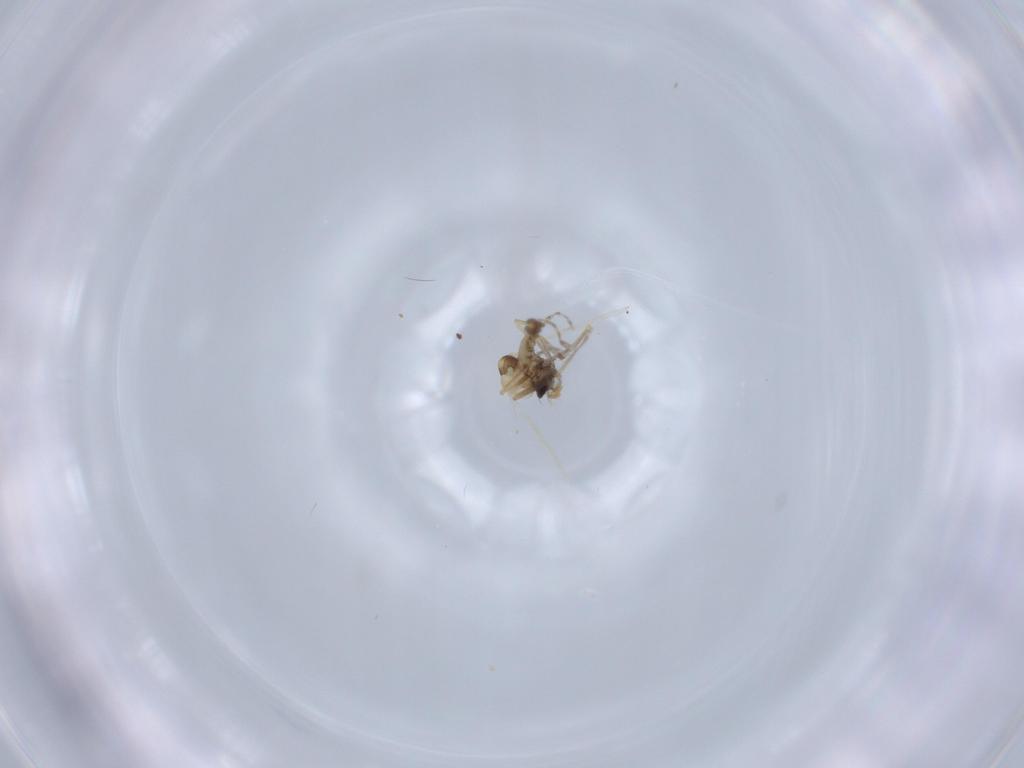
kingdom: Animalia
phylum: Arthropoda
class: Insecta
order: Diptera
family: Ceratopogonidae
